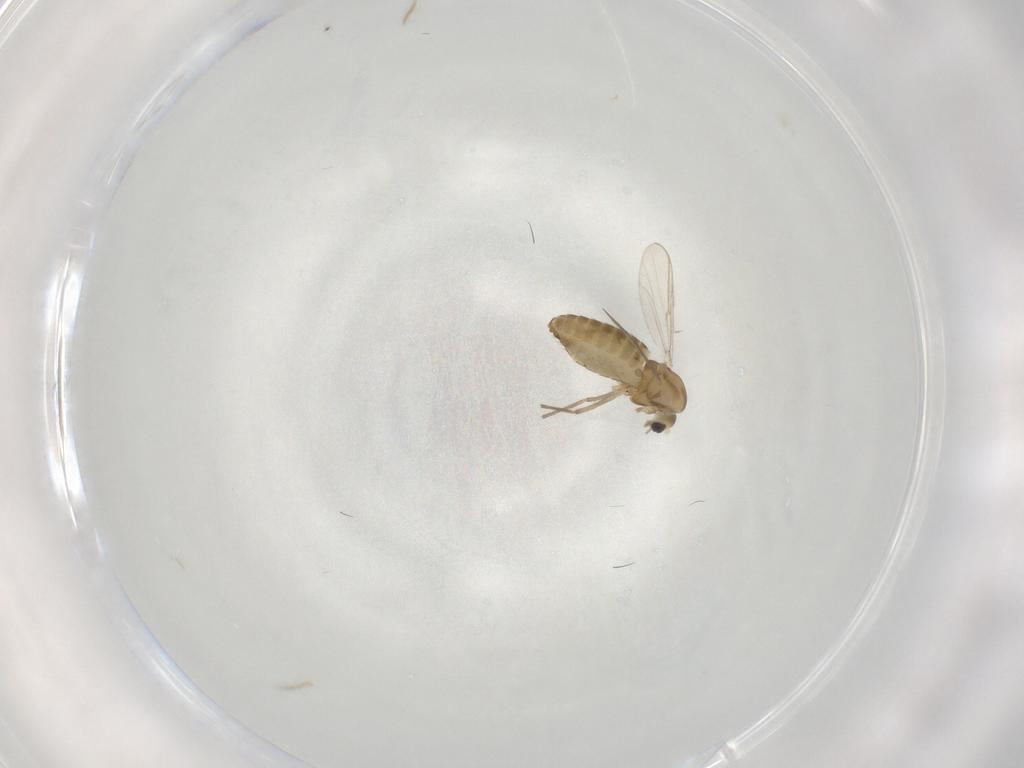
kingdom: Animalia
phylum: Arthropoda
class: Insecta
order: Diptera
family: Chironomidae
